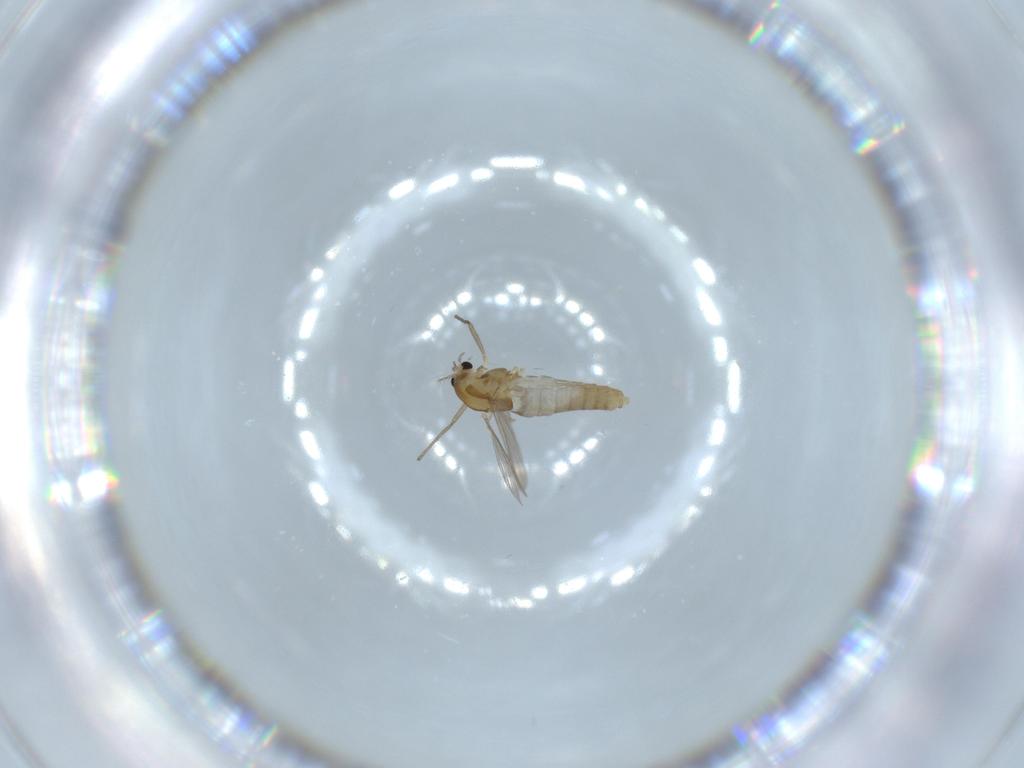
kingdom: Animalia
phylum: Arthropoda
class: Insecta
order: Diptera
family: Chironomidae
